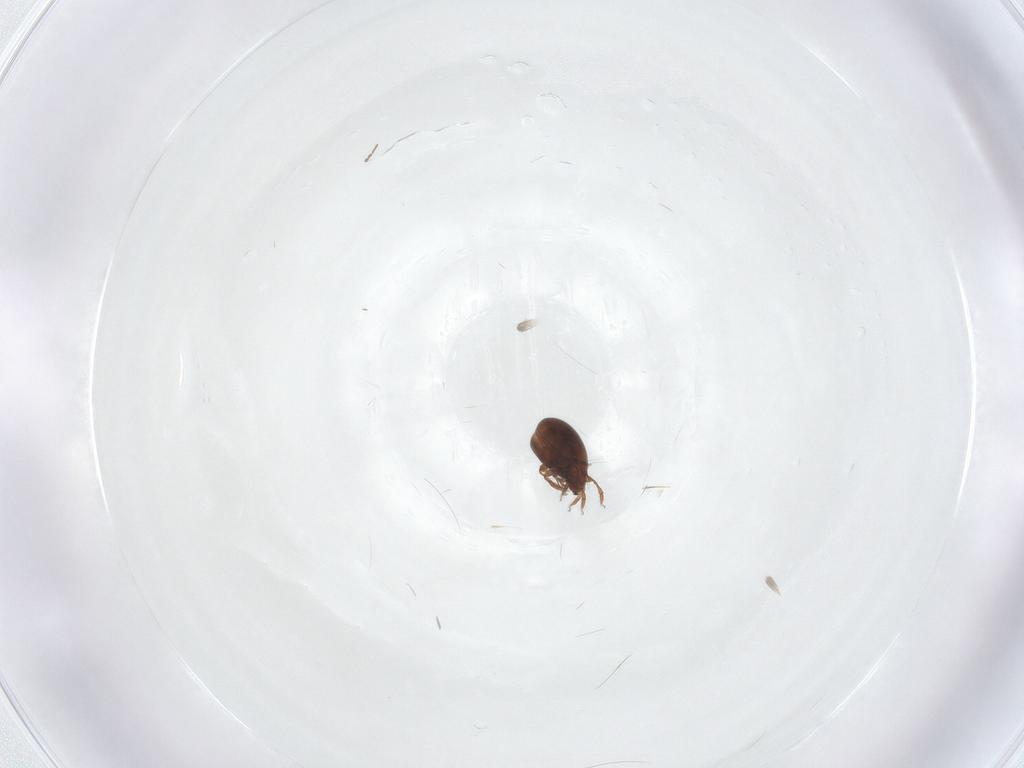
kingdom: Animalia
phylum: Arthropoda
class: Arachnida
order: Sarcoptiformes
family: Ceratozetidae
